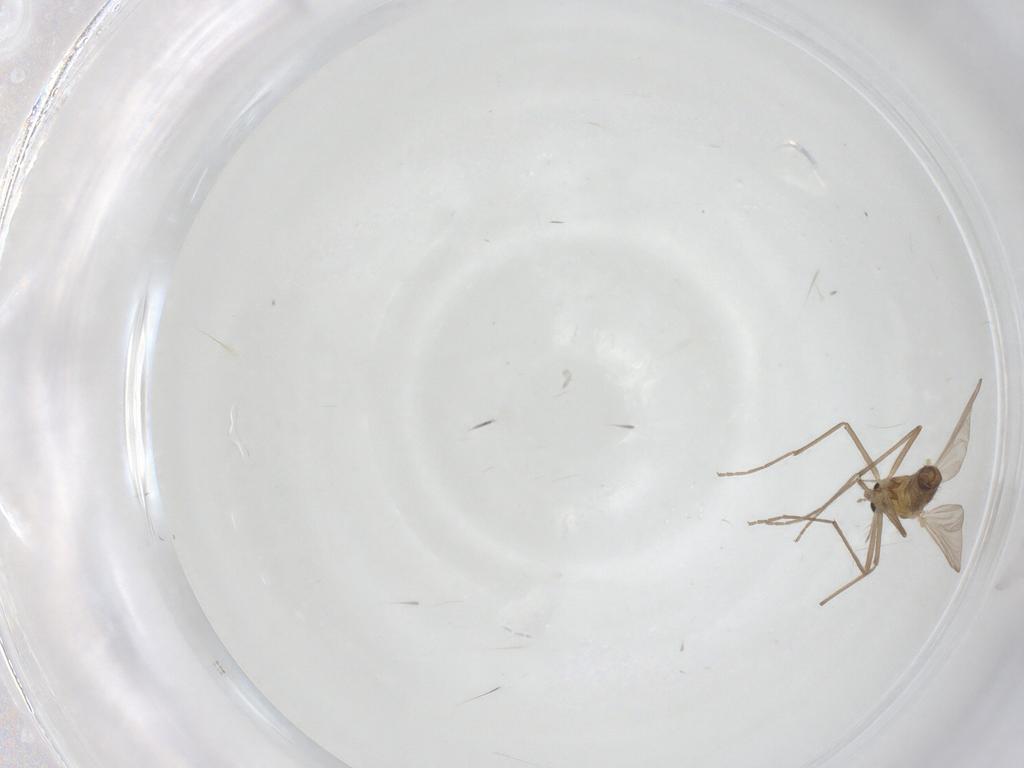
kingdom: Animalia
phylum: Arthropoda
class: Insecta
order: Diptera
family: Chironomidae
